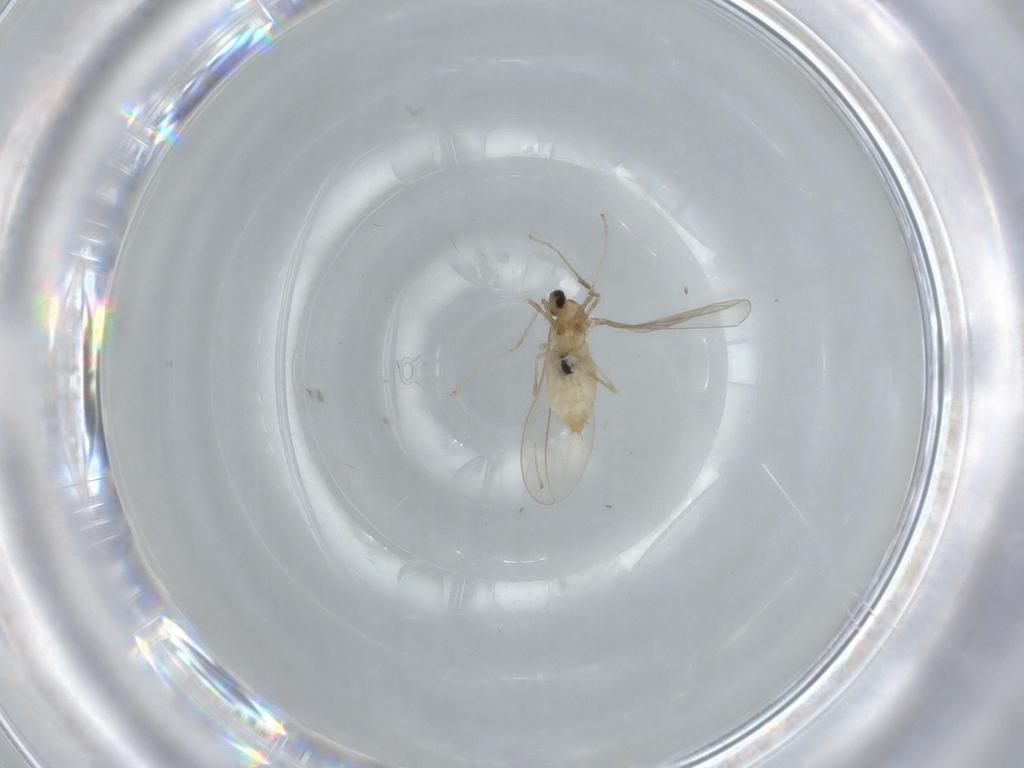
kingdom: Animalia
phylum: Arthropoda
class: Insecta
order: Diptera
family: Cecidomyiidae
